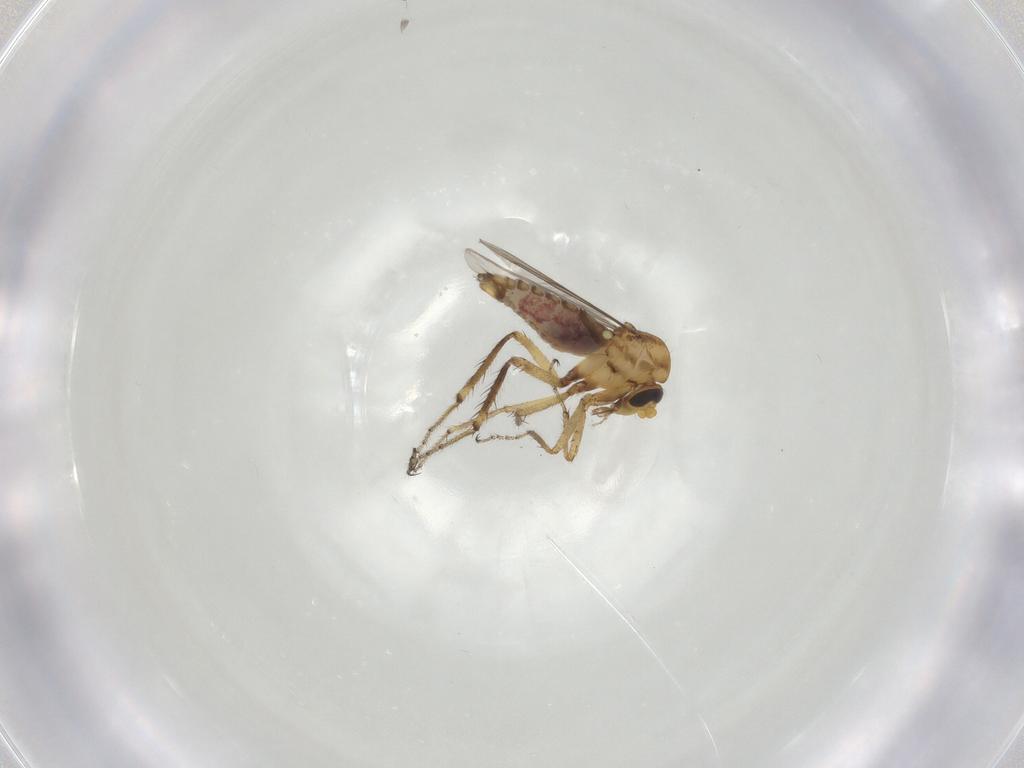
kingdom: Animalia
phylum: Arthropoda
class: Insecta
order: Diptera
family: Ceratopogonidae
